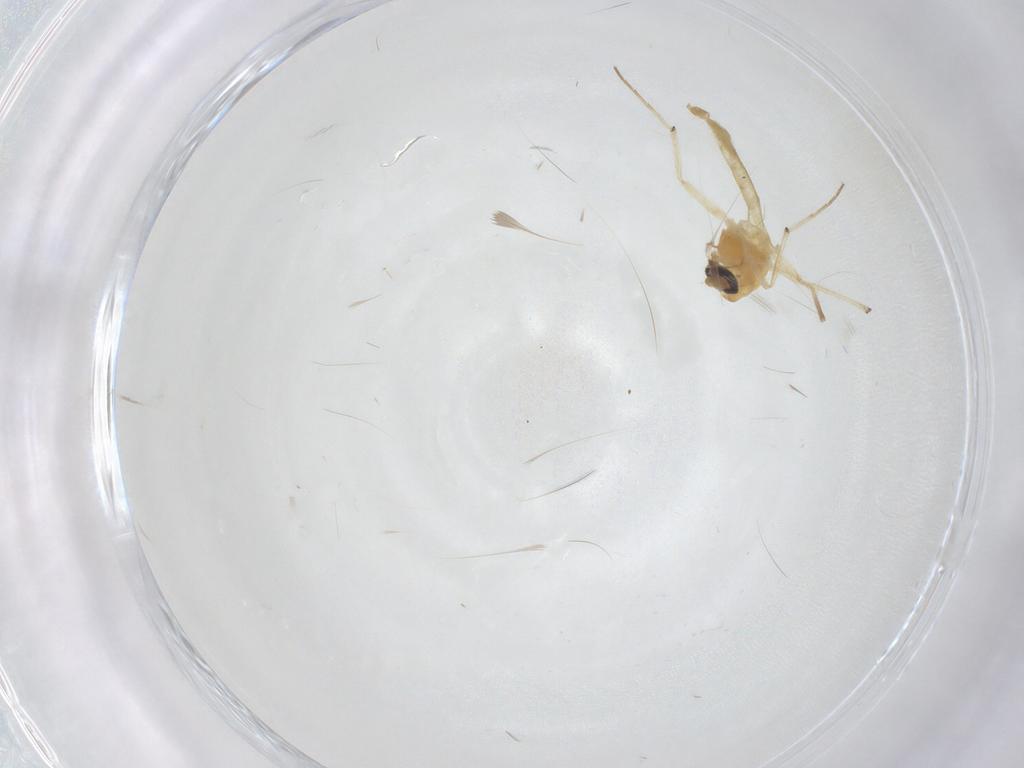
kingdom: Animalia
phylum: Arthropoda
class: Insecta
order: Diptera
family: Chironomidae
